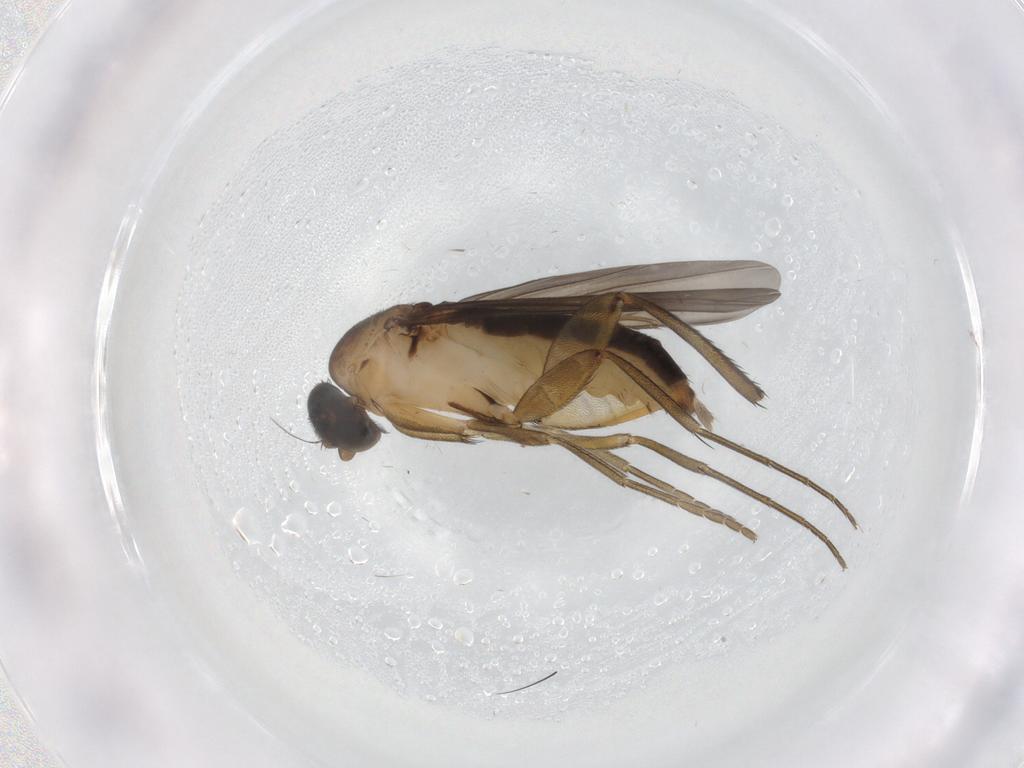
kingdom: Animalia
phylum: Arthropoda
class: Insecta
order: Diptera
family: Phoridae
